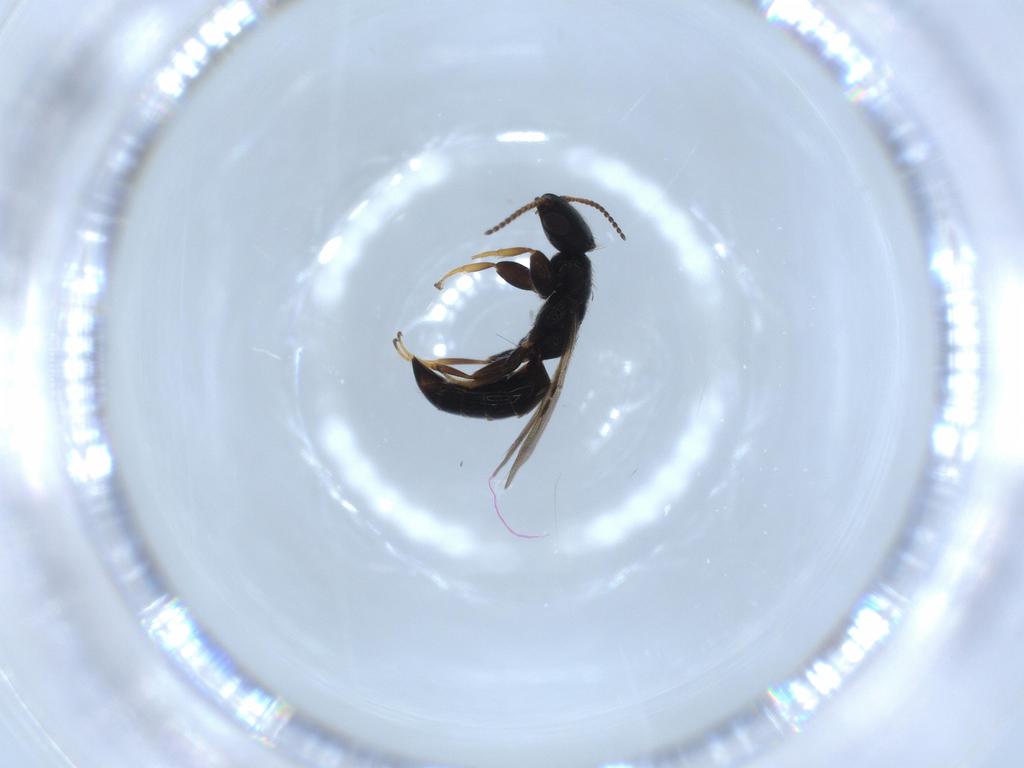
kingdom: Animalia
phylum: Arthropoda
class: Insecta
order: Hymenoptera
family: Bethylidae
